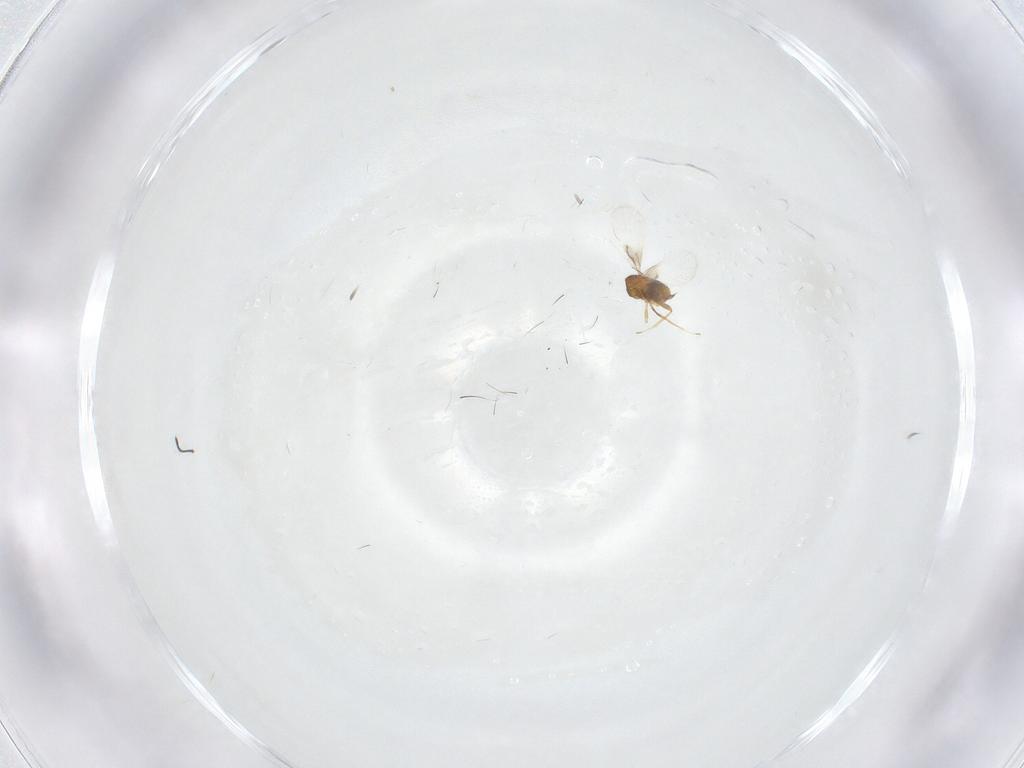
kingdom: Animalia
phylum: Arthropoda
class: Insecta
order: Hymenoptera
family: Trichogrammatidae
